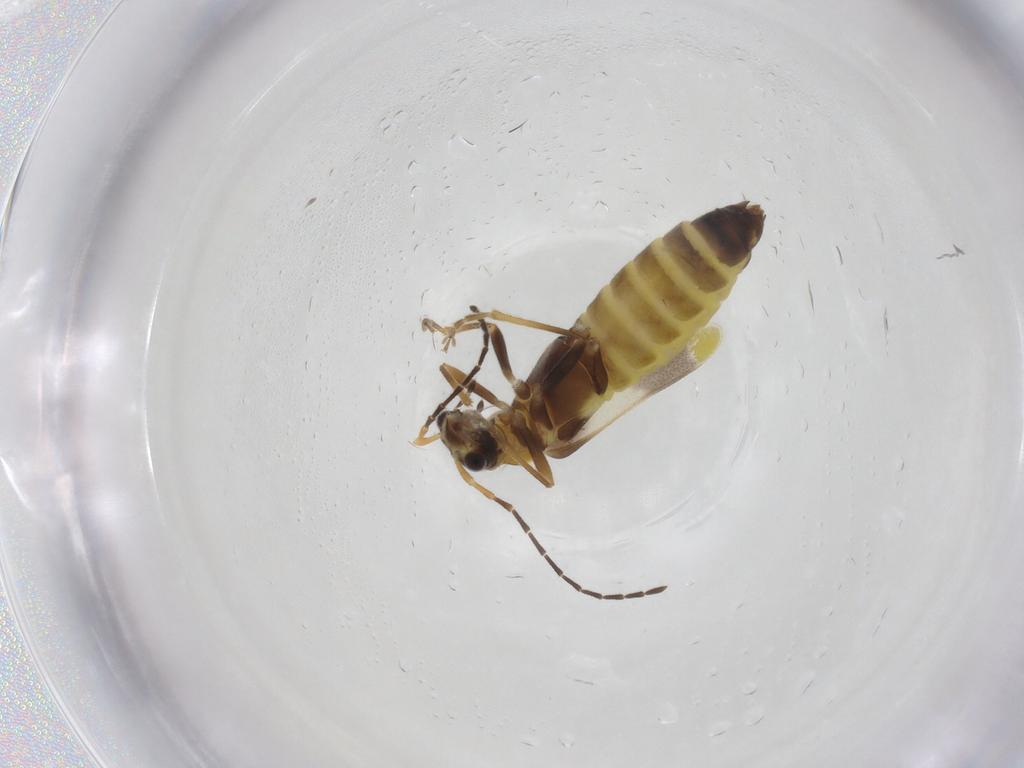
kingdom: Animalia
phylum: Arthropoda
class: Insecta
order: Coleoptera
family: Cantharidae
